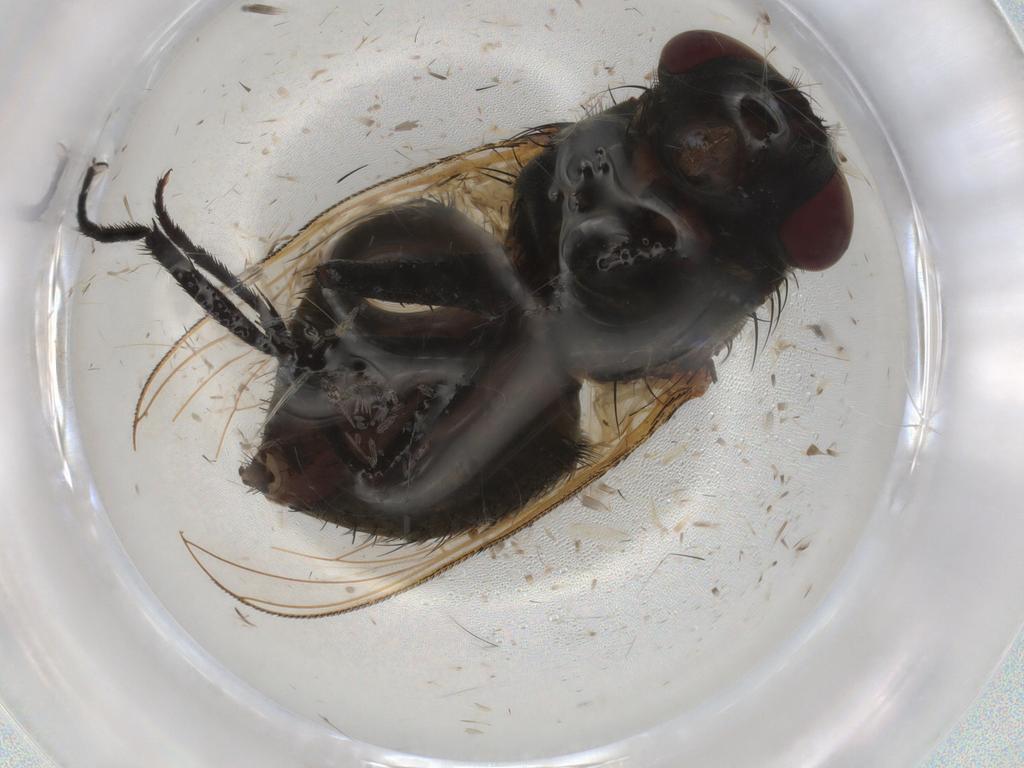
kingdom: Animalia
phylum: Arthropoda
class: Insecta
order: Diptera
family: Glossinidae
